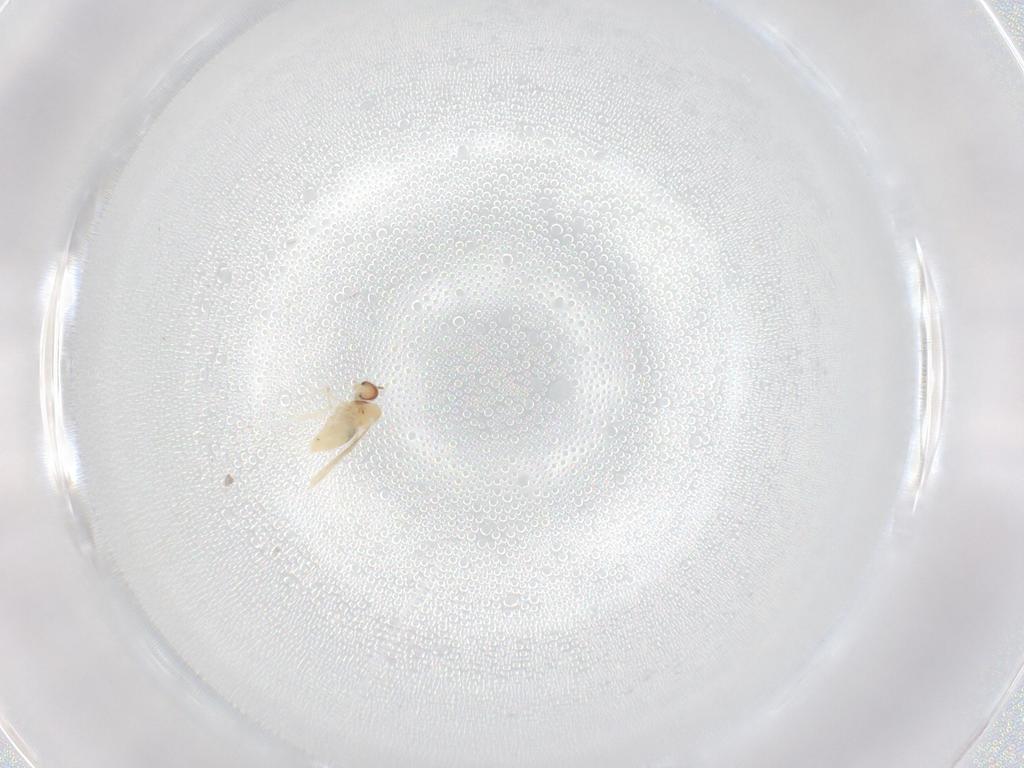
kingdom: Animalia
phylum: Arthropoda
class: Insecta
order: Diptera
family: Cecidomyiidae
